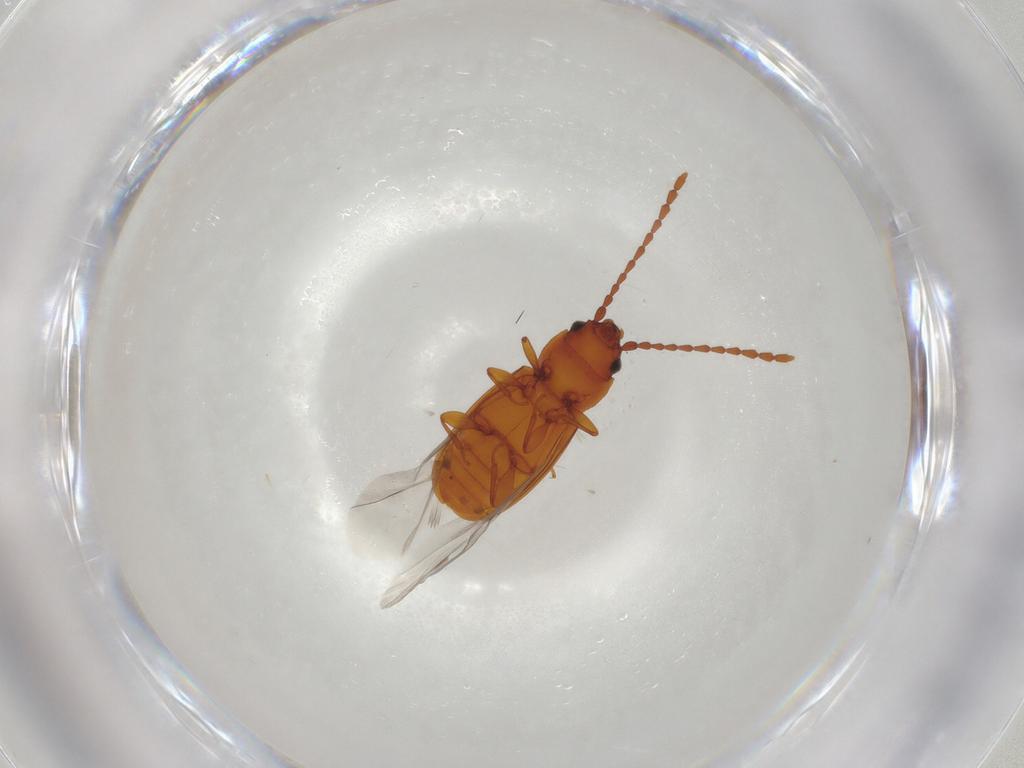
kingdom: Animalia
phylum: Arthropoda
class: Insecta
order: Coleoptera
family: Laemophloeidae
